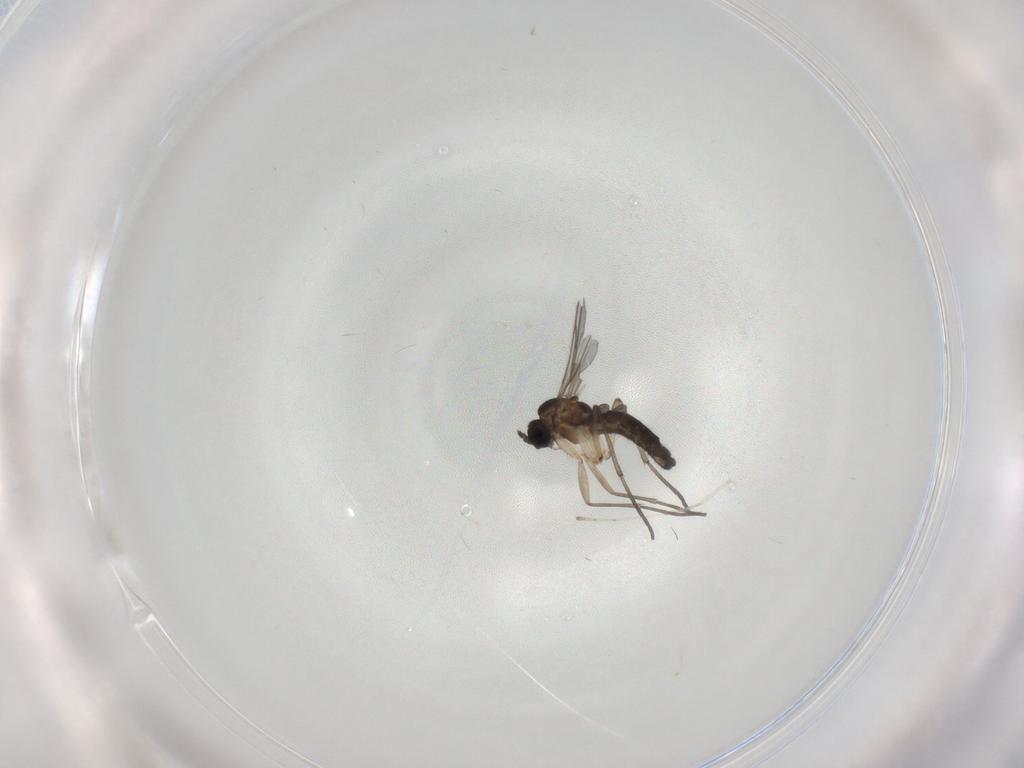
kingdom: Animalia
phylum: Arthropoda
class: Insecta
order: Diptera
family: Sciaridae
